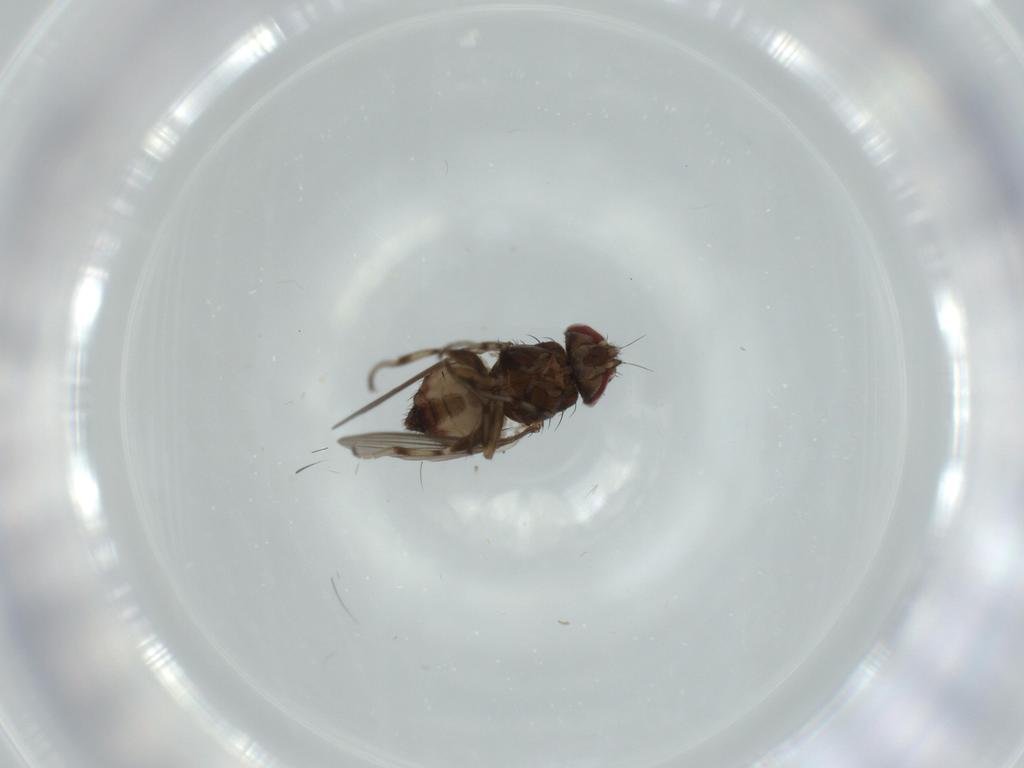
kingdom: Animalia
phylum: Arthropoda
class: Insecta
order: Diptera
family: Heleomyzidae
